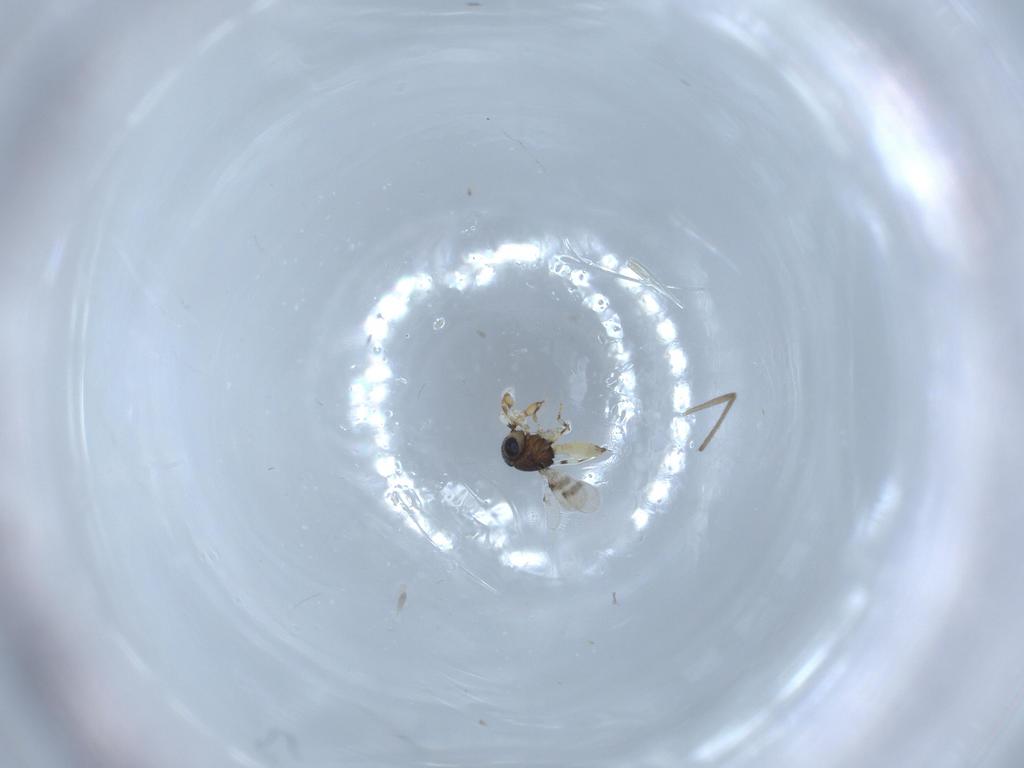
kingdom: Animalia
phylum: Arthropoda
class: Insecta
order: Hymenoptera
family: Scelionidae
